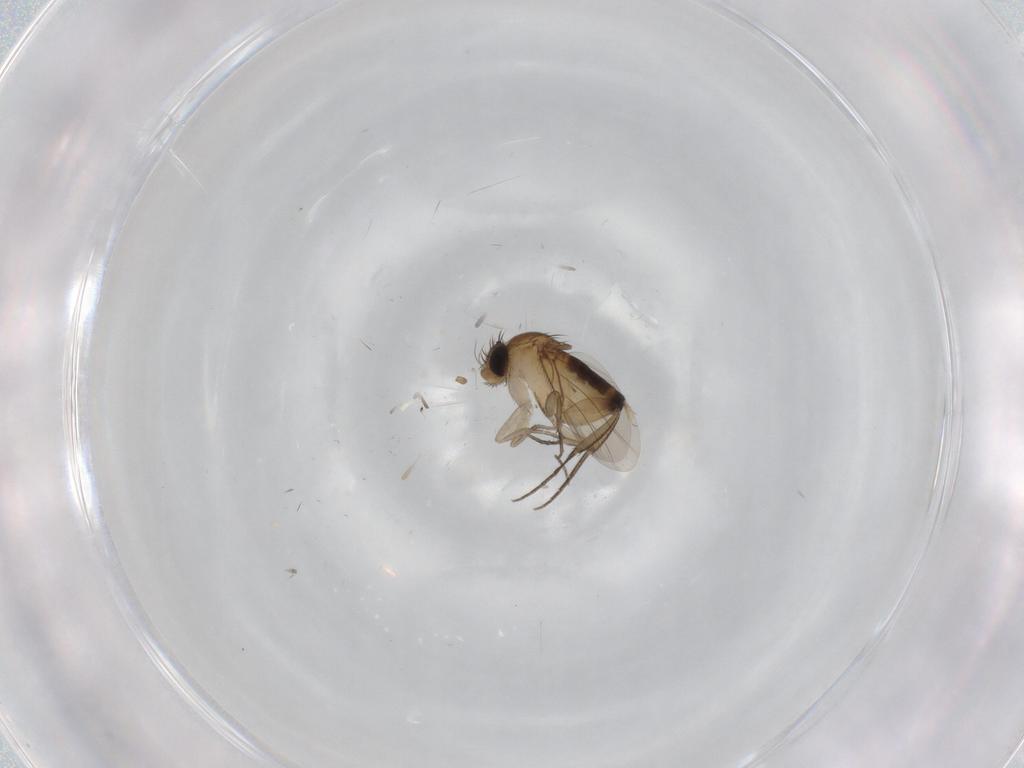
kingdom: Animalia
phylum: Arthropoda
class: Insecta
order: Diptera
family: Phoridae
